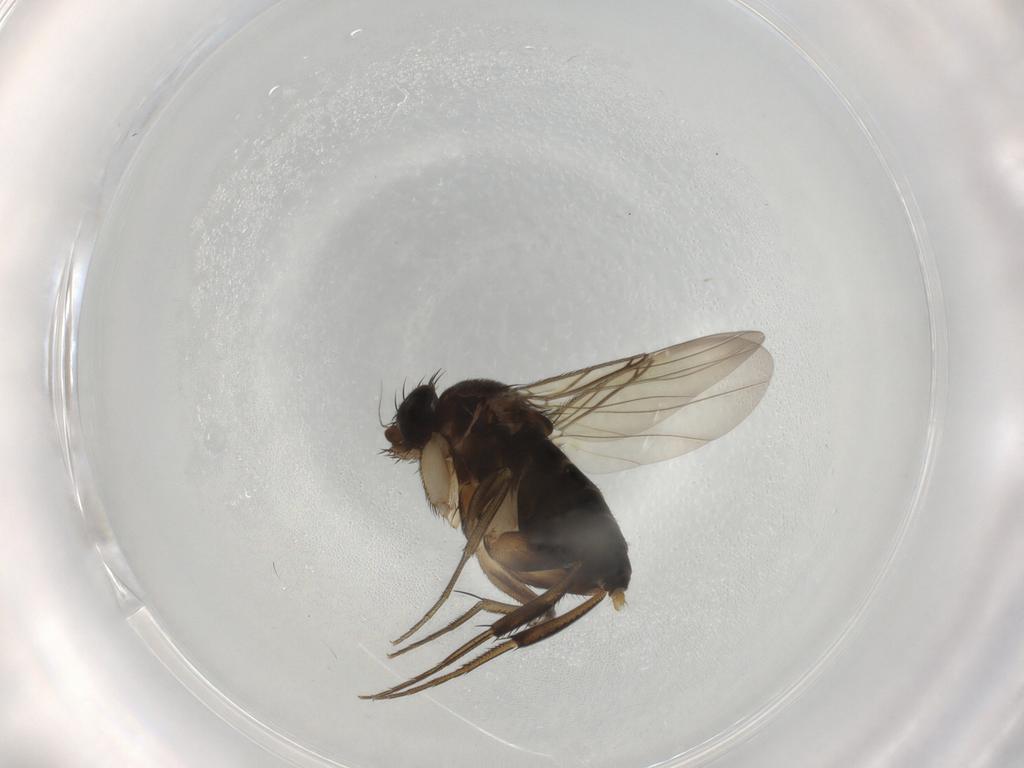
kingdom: Animalia
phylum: Arthropoda
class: Insecta
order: Diptera
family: Phoridae
